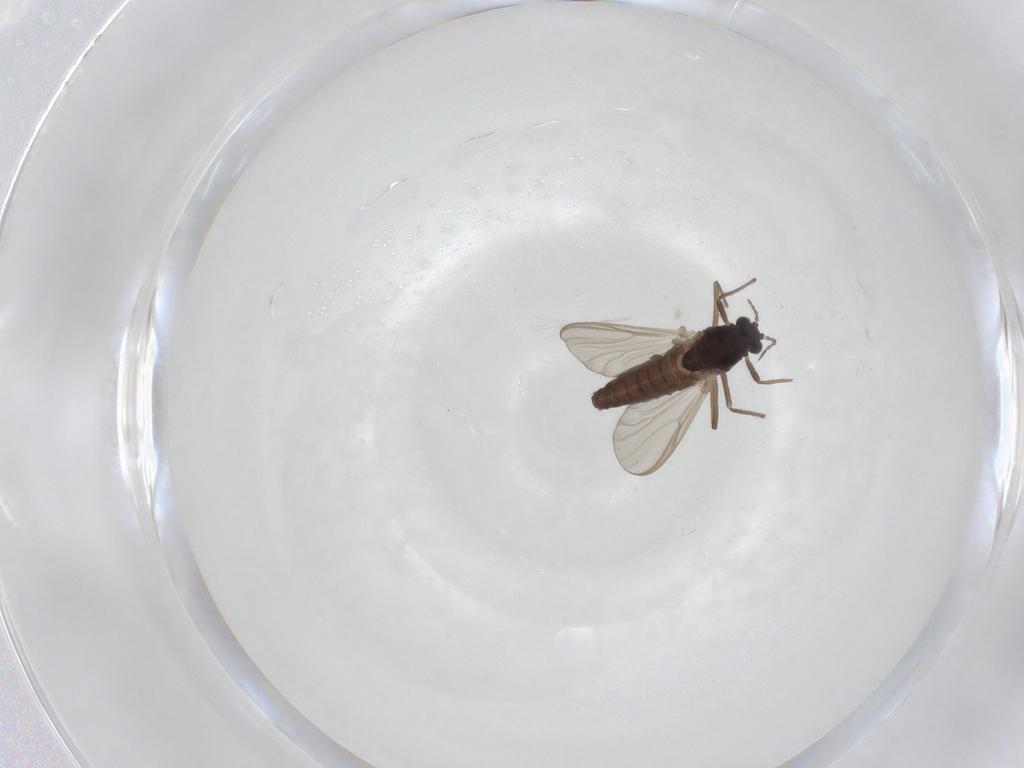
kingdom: Animalia
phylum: Arthropoda
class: Insecta
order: Diptera
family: Chironomidae
